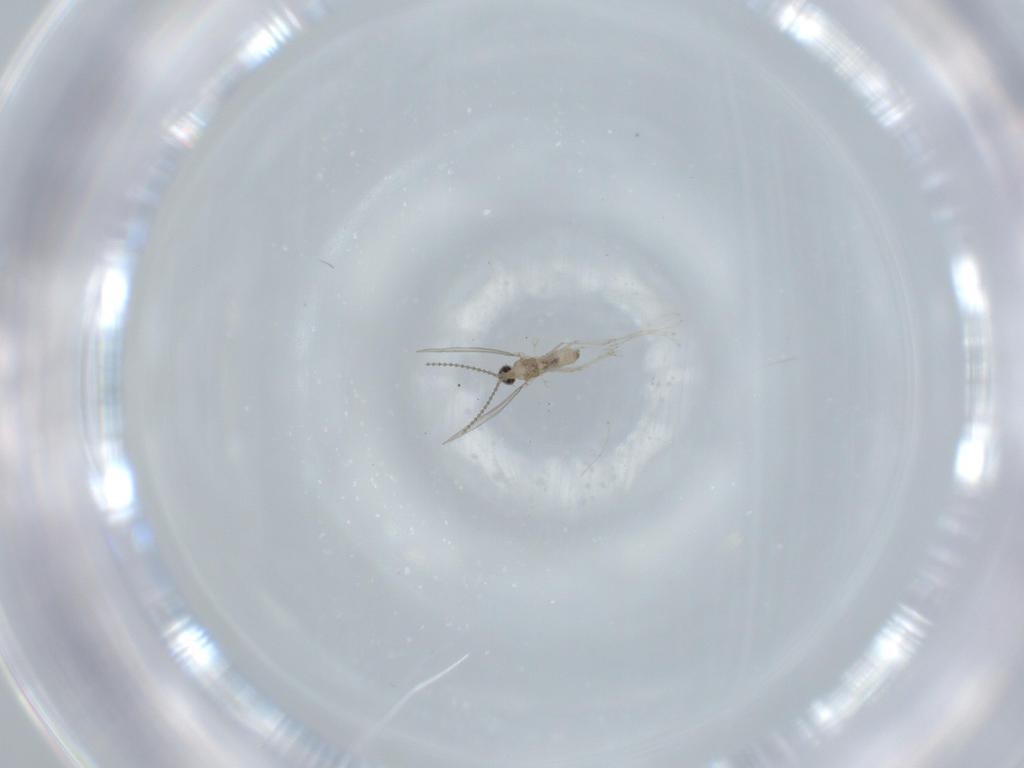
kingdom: Animalia
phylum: Arthropoda
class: Insecta
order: Diptera
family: Cecidomyiidae
